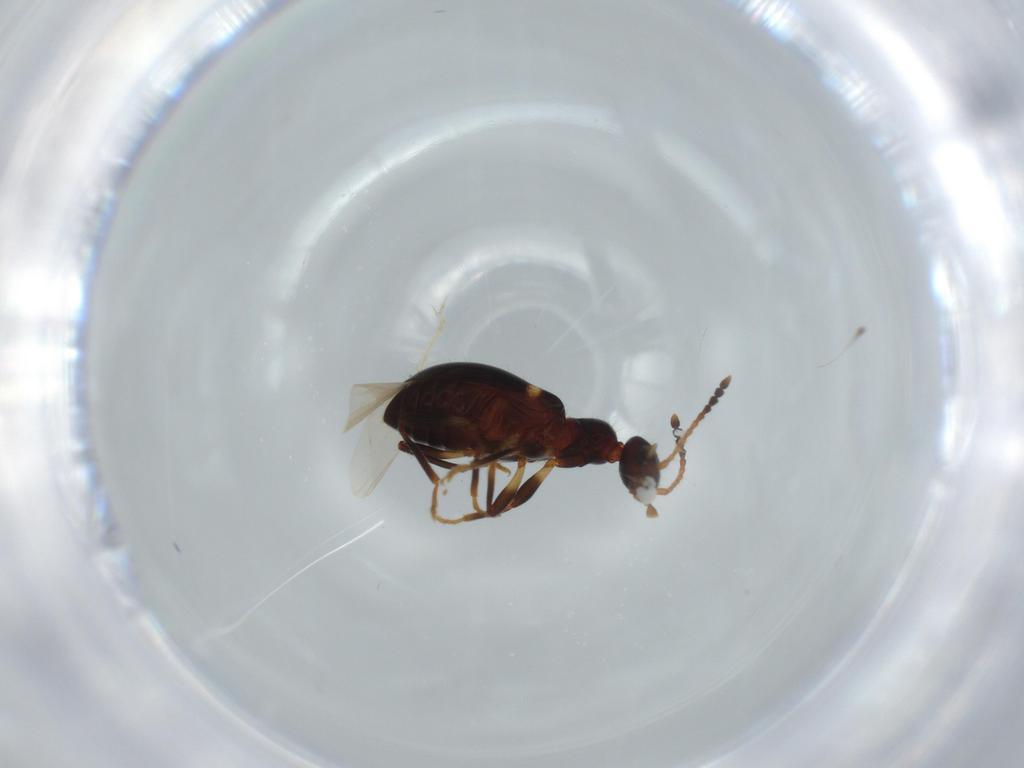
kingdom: Animalia
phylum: Arthropoda
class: Insecta
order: Coleoptera
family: Anthicidae
